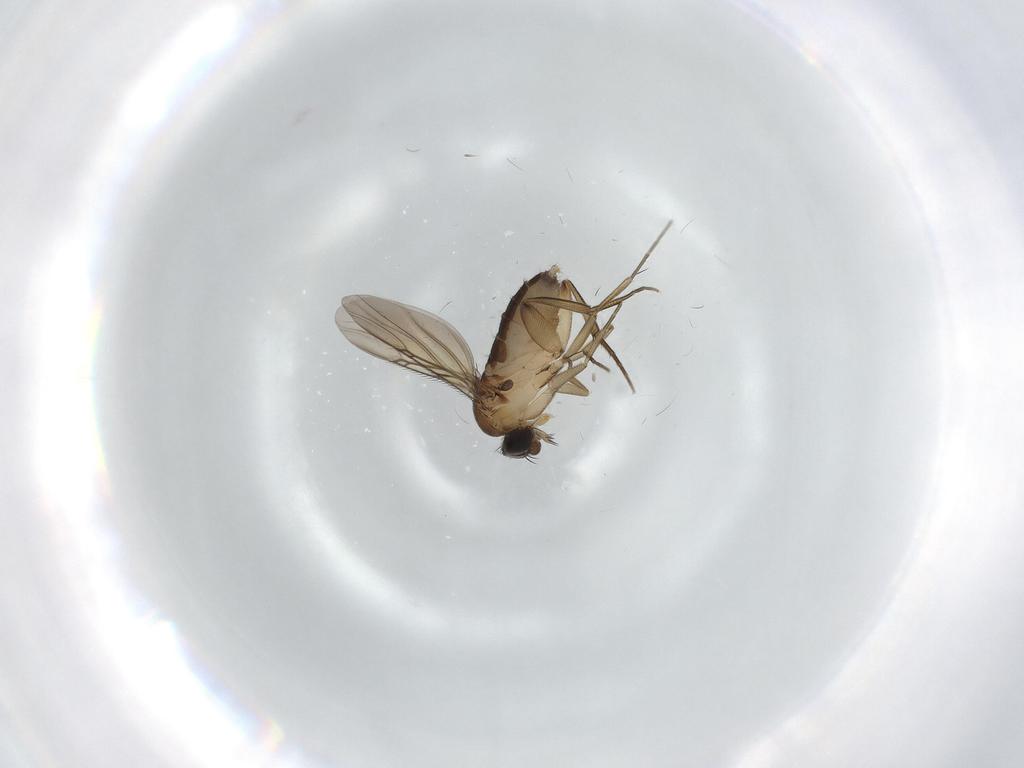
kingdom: Animalia
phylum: Arthropoda
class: Insecta
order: Diptera
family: Phoridae
